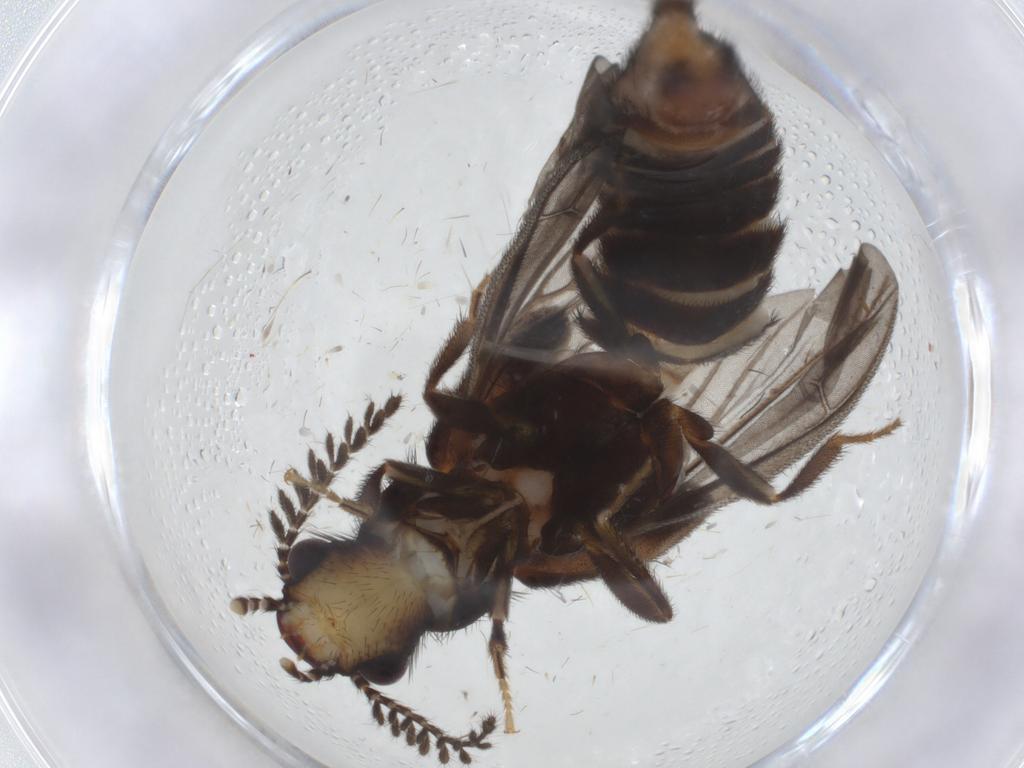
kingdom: Animalia
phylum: Arthropoda
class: Insecta
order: Coleoptera
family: Phengodidae
